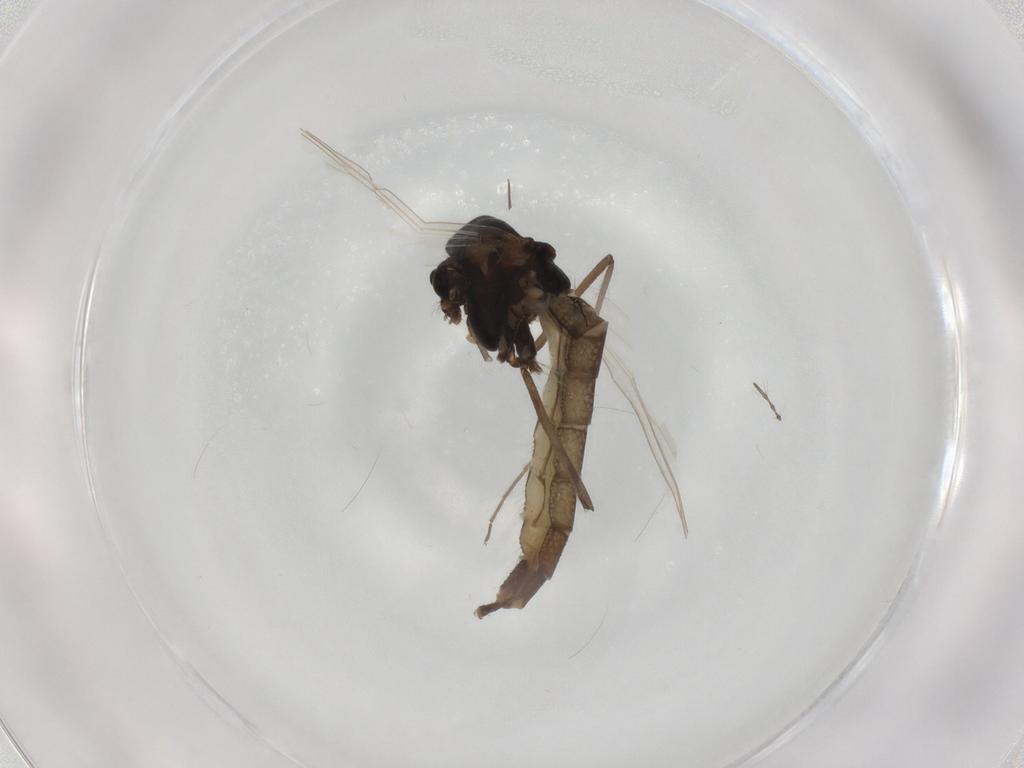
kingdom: Animalia
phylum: Arthropoda
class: Insecta
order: Diptera
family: Chironomidae
